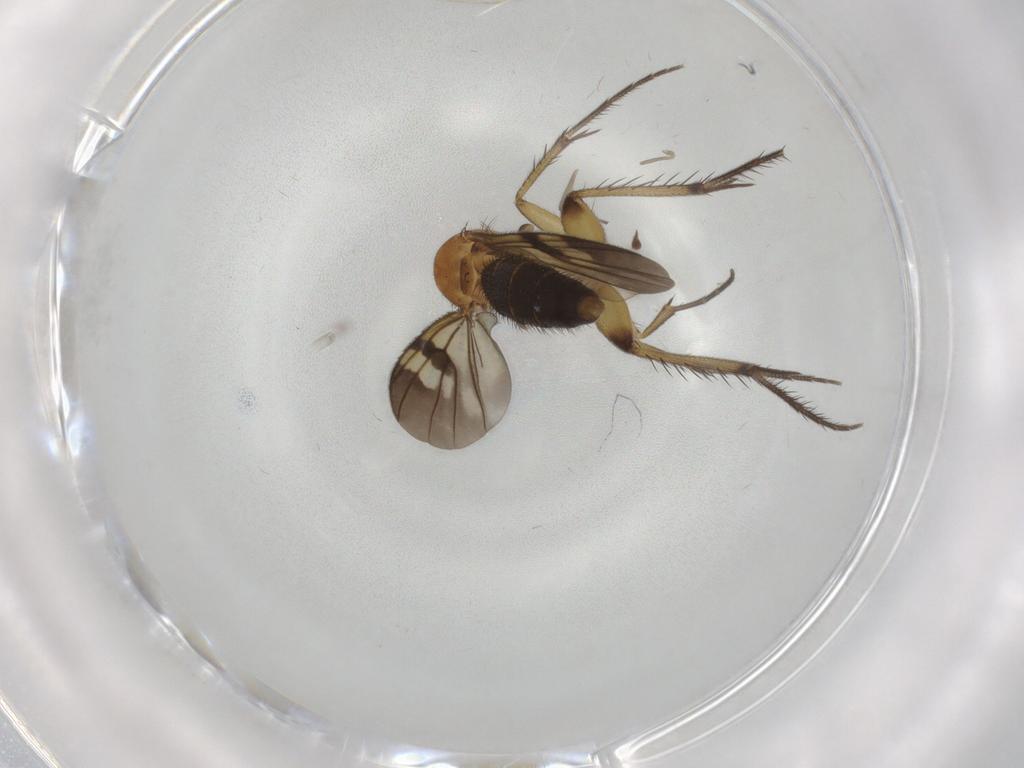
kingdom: Animalia
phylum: Arthropoda
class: Insecta
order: Diptera
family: Chironomidae
